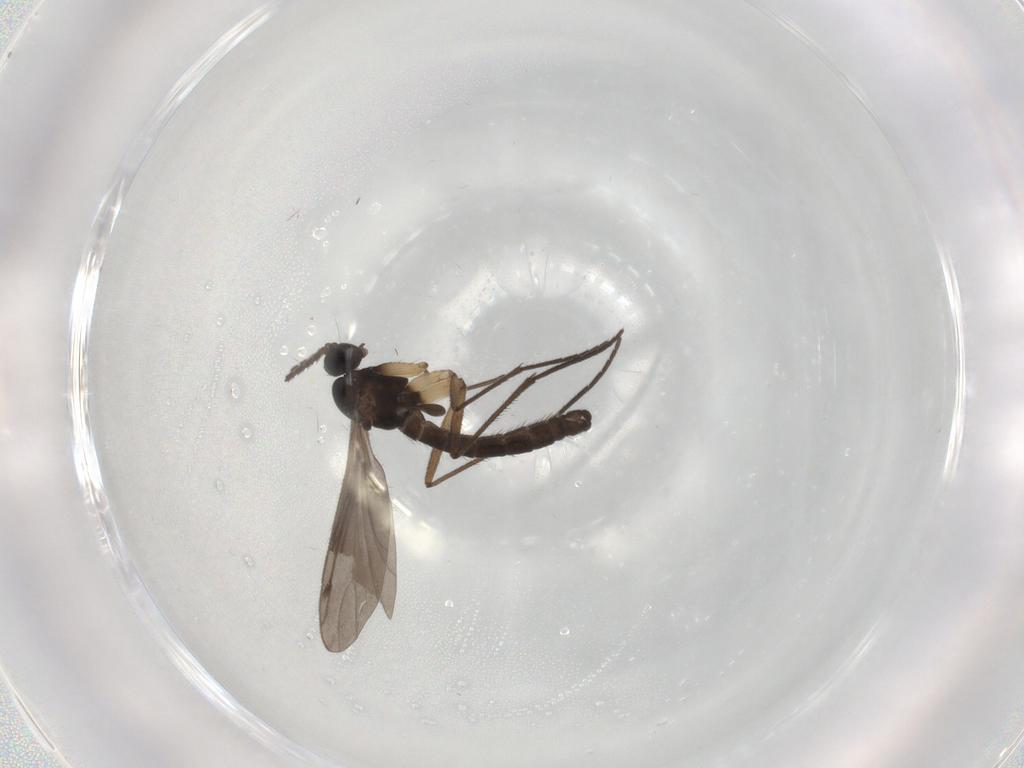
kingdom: Animalia
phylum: Arthropoda
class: Insecta
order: Diptera
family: Sciaridae
